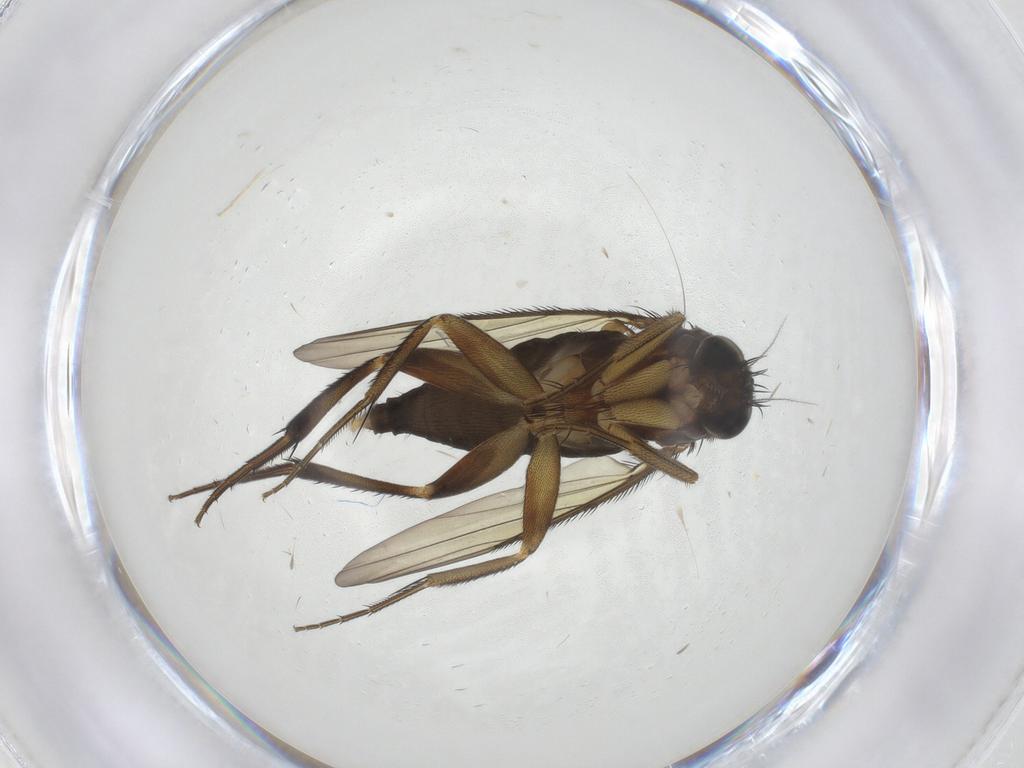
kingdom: Animalia
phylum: Arthropoda
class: Insecta
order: Diptera
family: Phoridae
